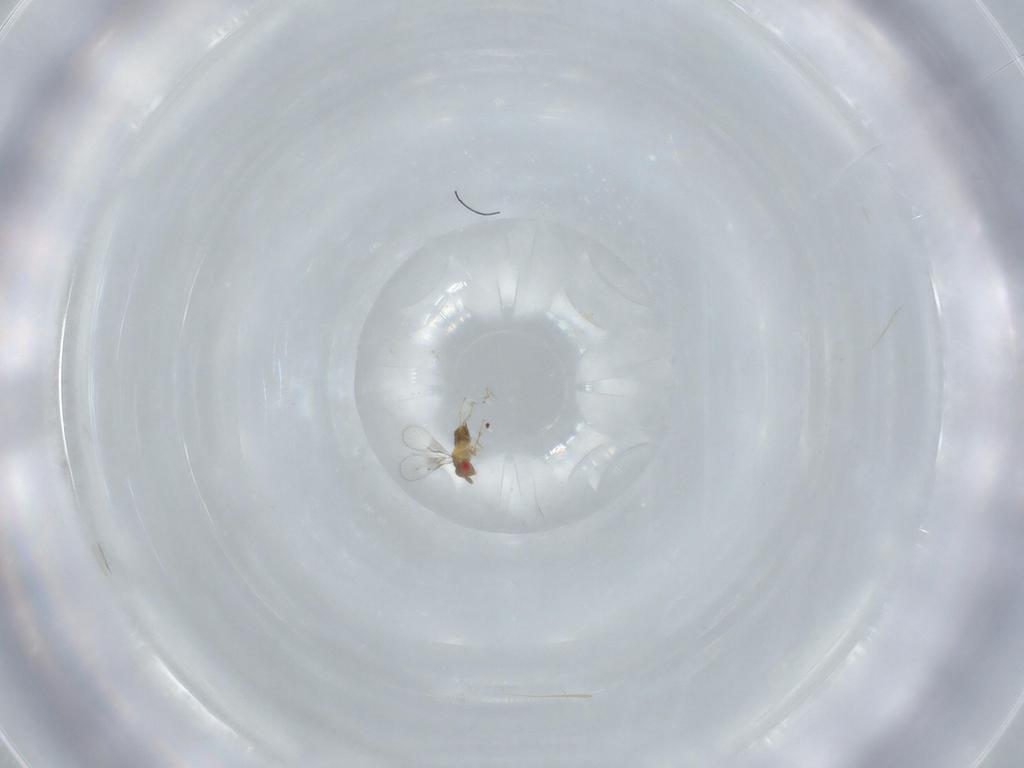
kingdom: Animalia
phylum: Arthropoda
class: Insecta
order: Hymenoptera
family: Trichogrammatidae
